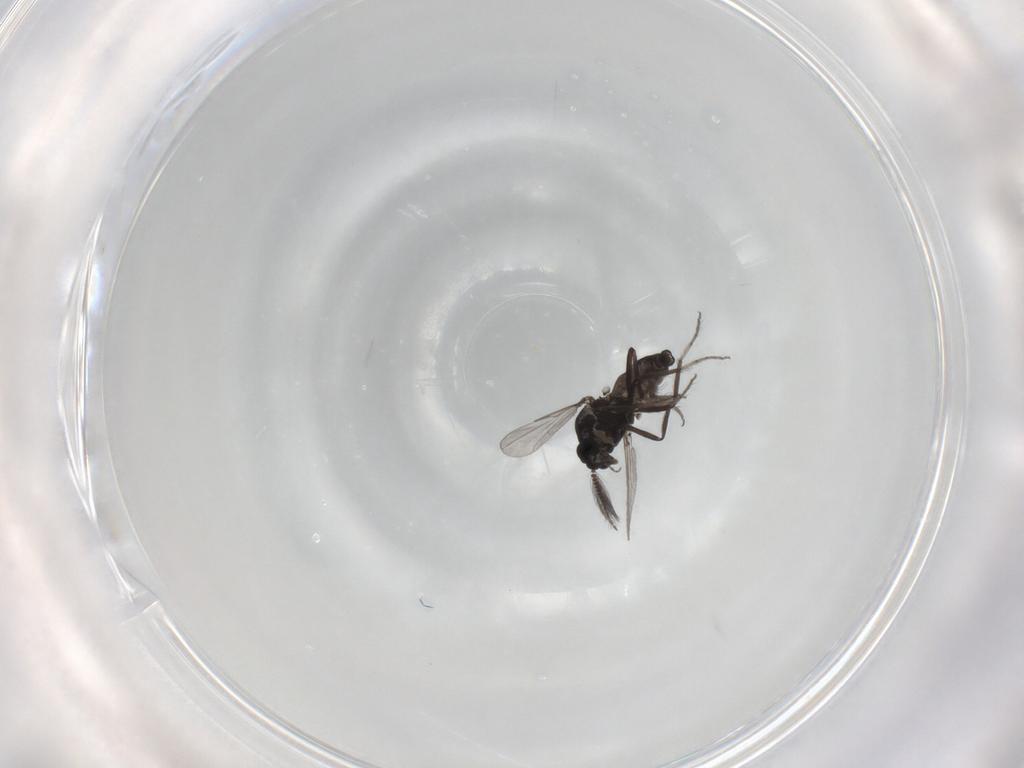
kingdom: Animalia
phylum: Arthropoda
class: Insecta
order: Diptera
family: Ceratopogonidae
